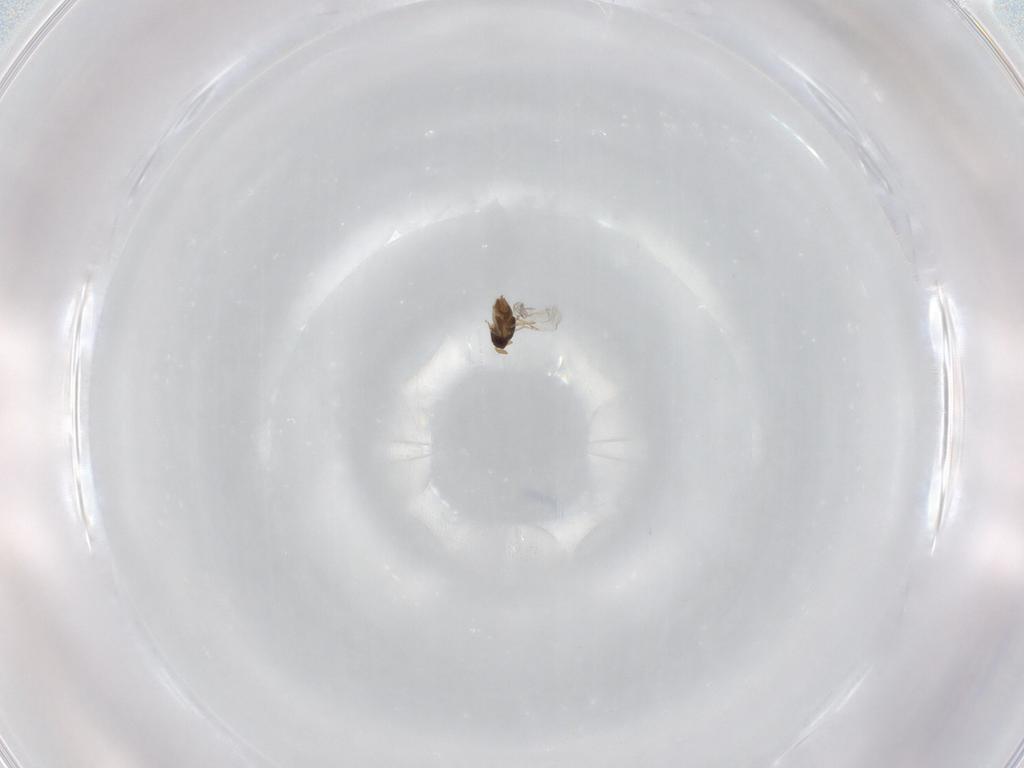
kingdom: Animalia
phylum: Arthropoda
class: Insecta
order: Hymenoptera
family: Encyrtidae
